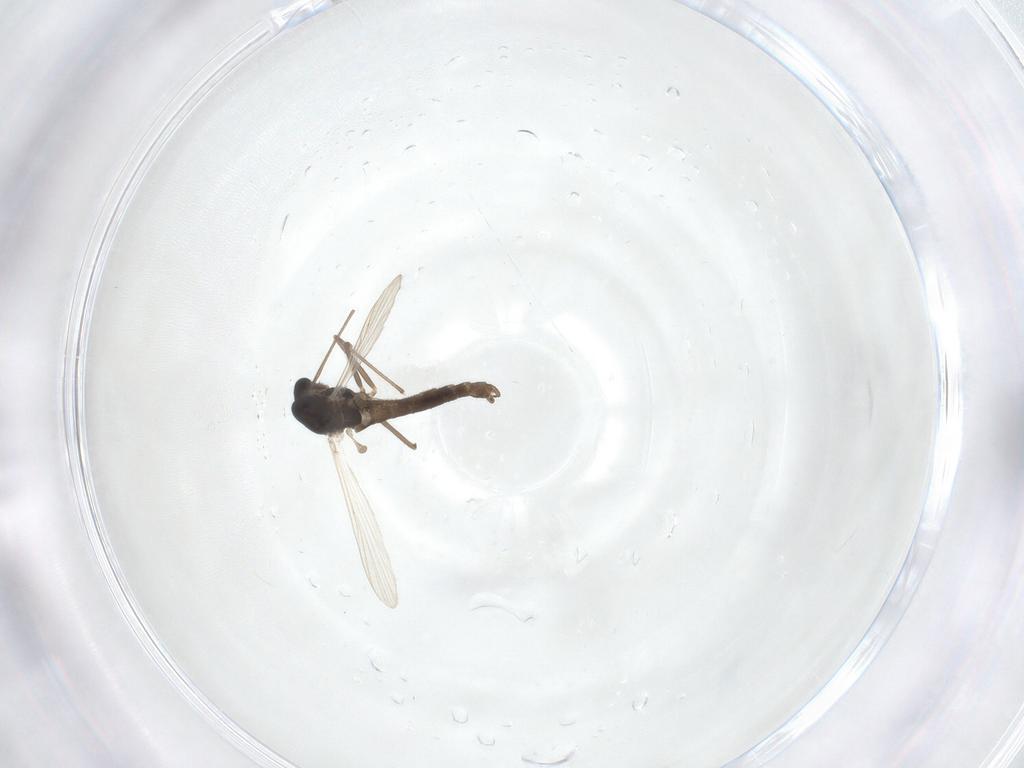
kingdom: Animalia
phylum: Arthropoda
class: Insecta
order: Diptera
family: Chironomidae
